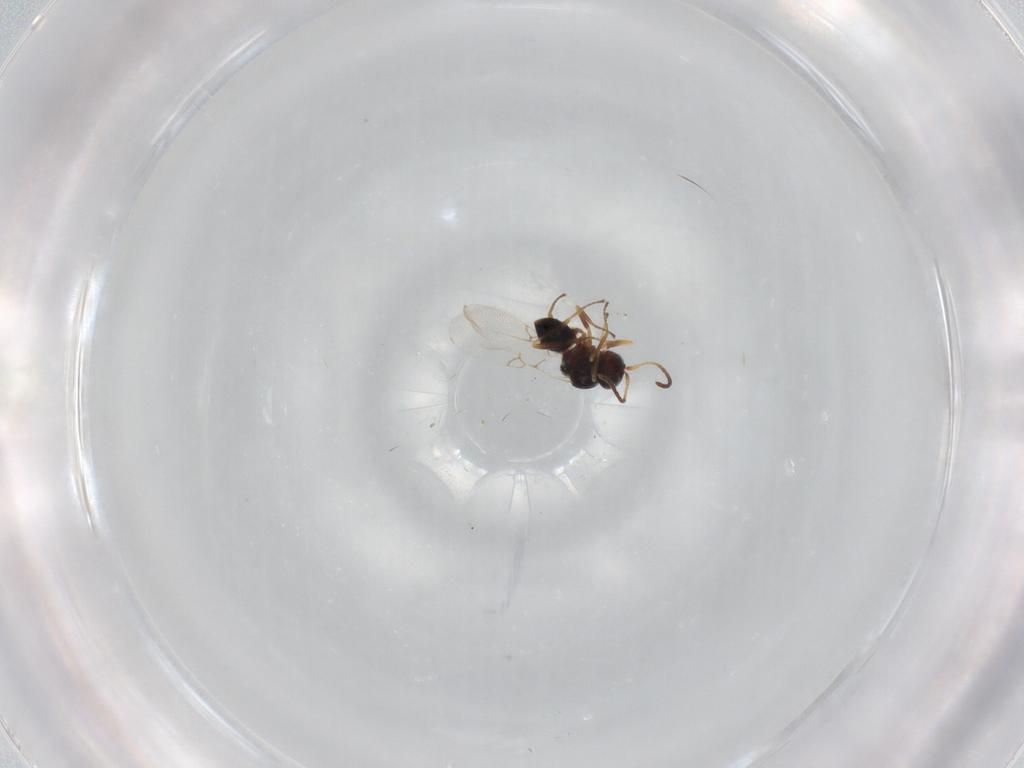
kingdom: Animalia
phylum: Arthropoda
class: Insecta
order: Hymenoptera
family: Figitidae
